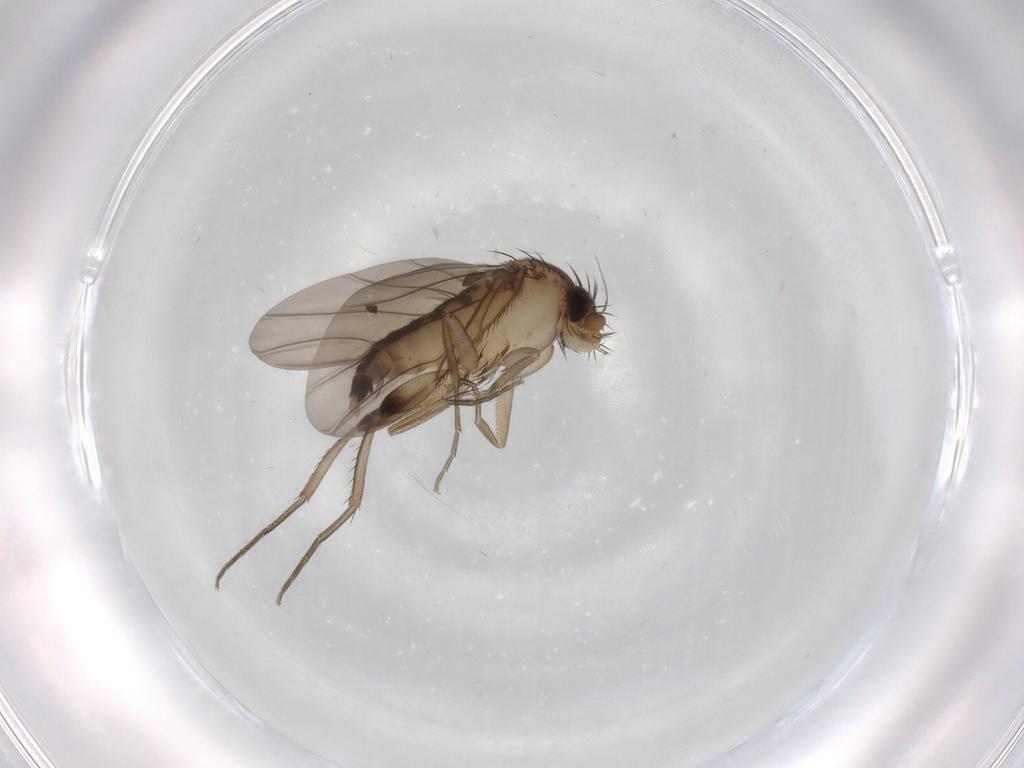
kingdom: Animalia
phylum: Arthropoda
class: Insecta
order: Diptera
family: Phoridae
